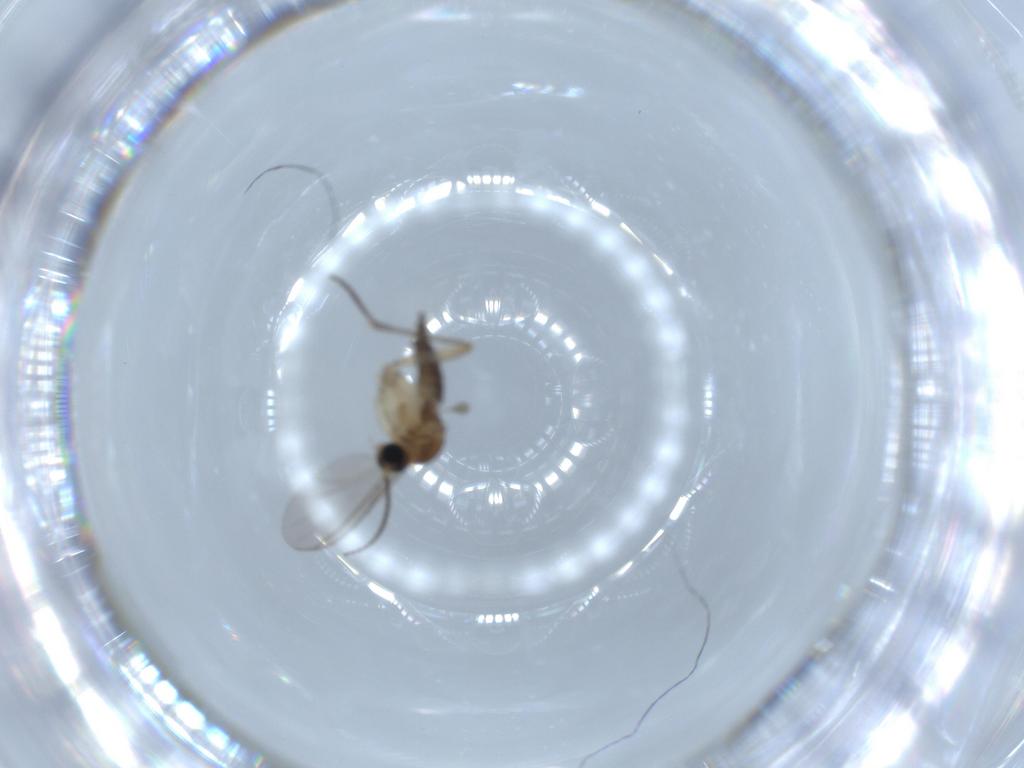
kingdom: Animalia
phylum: Arthropoda
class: Insecta
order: Diptera
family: Sciaridae
